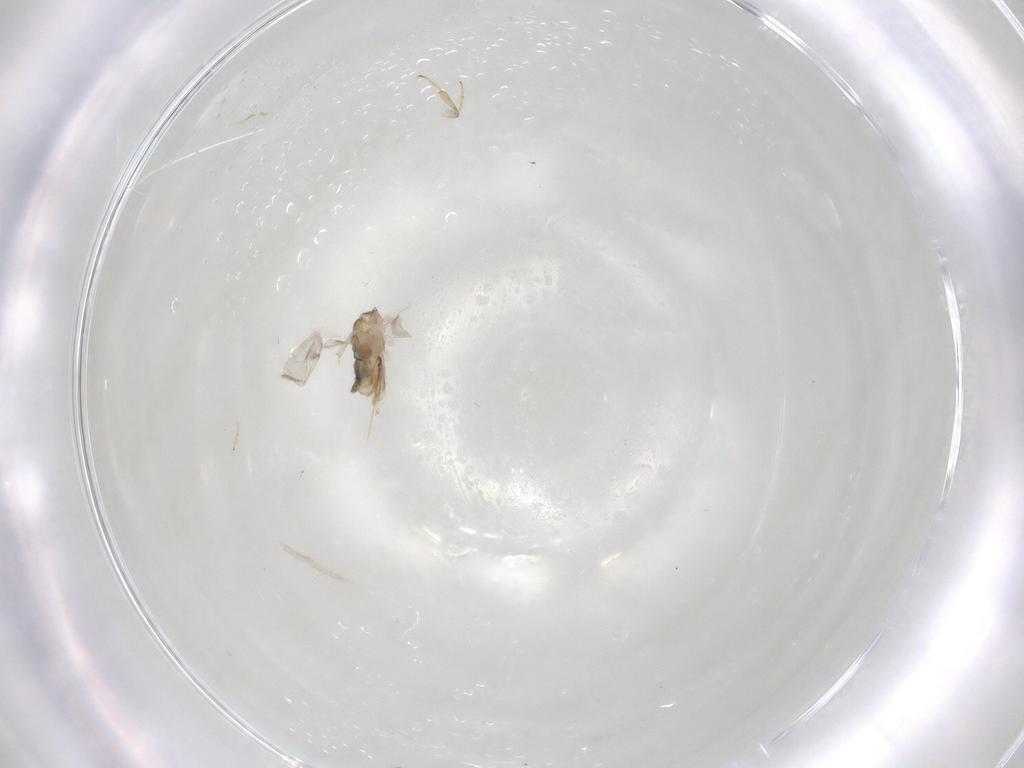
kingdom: Animalia
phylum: Arthropoda
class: Insecta
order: Hymenoptera
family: Encyrtidae
